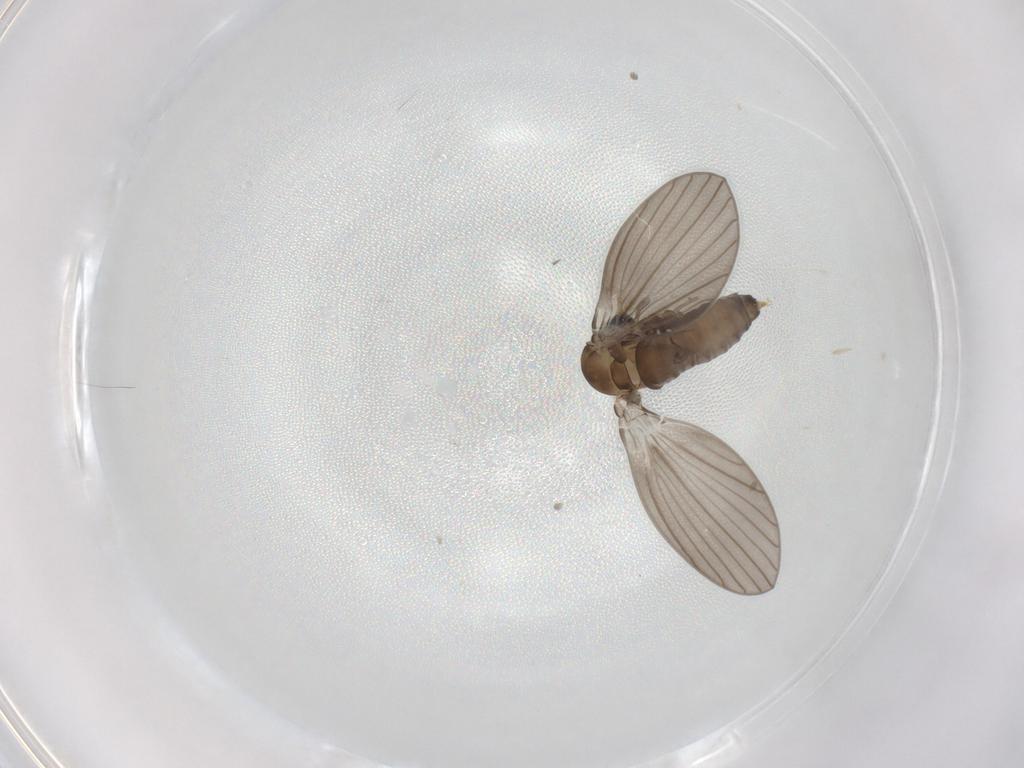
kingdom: Animalia
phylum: Arthropoda
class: Insecta
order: Diptera
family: Psychodidae
